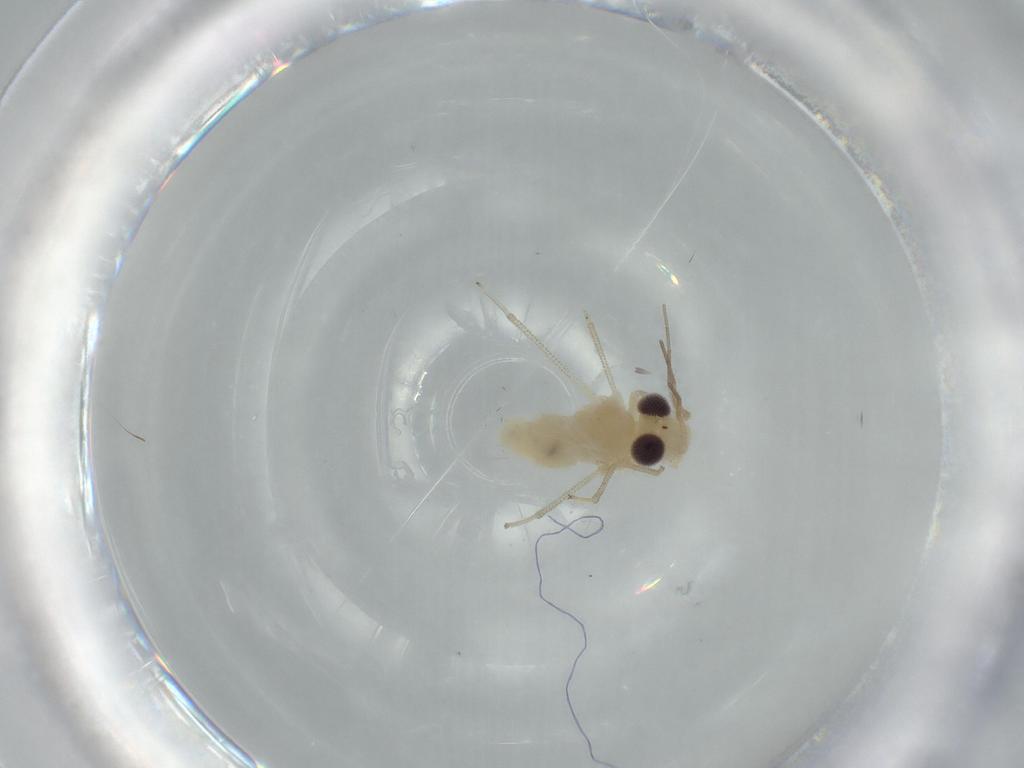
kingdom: Animalia
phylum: Arthropoda
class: Insecta
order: Psocodea
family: Caeciliusidae
